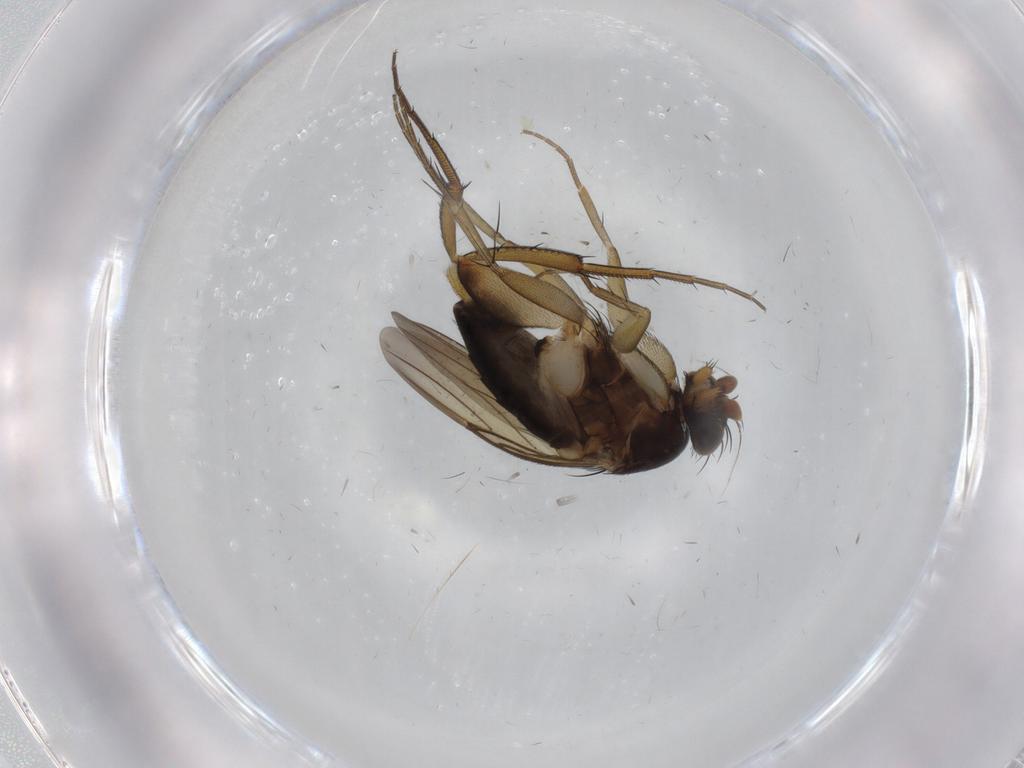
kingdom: Animalia
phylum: Arthropoda
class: Insecta
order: Diptera
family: Phoridae
